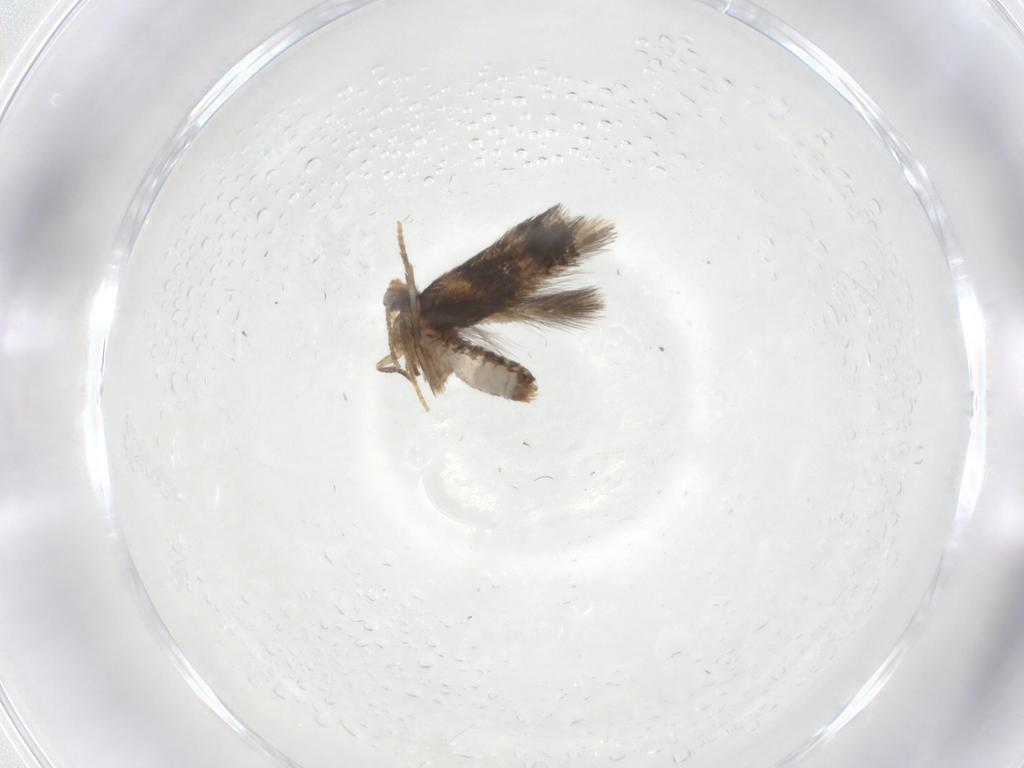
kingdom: Animalia
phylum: Arthropoda
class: Insecta
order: Lepidoptera
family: Nepticulidae
